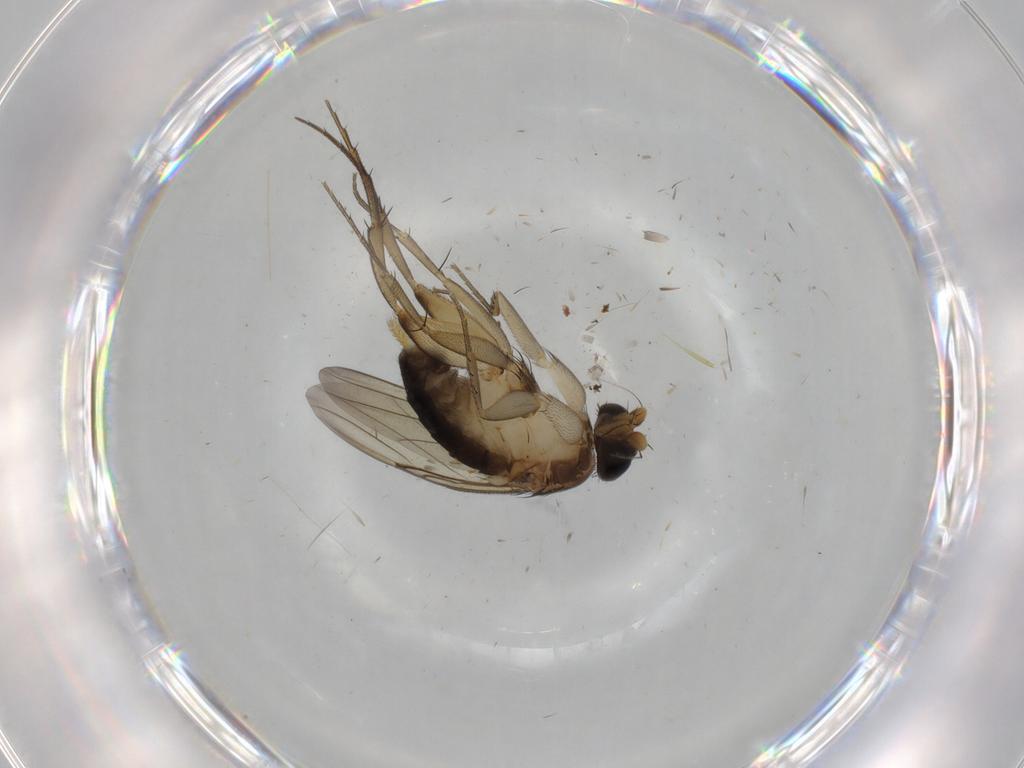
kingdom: Animalia
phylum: Arthropoda
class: Insecta
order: Diptera
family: Phoridae
